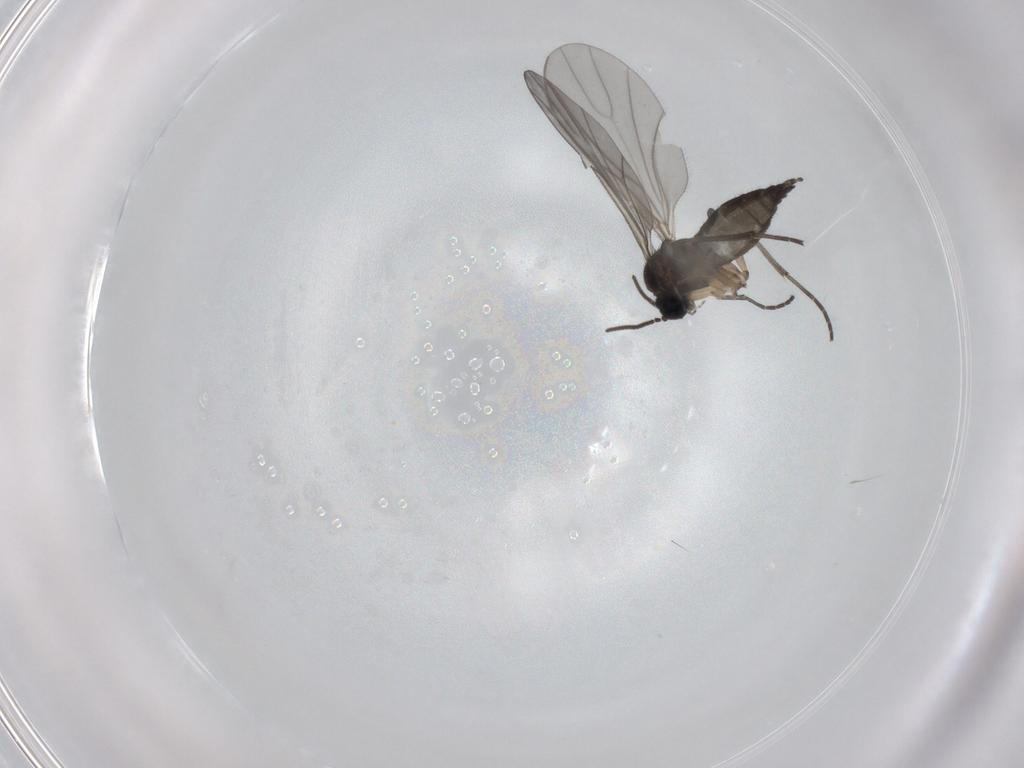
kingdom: Animalia
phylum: Arthropoda
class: Insecta
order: Diptera
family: Sciaridae
